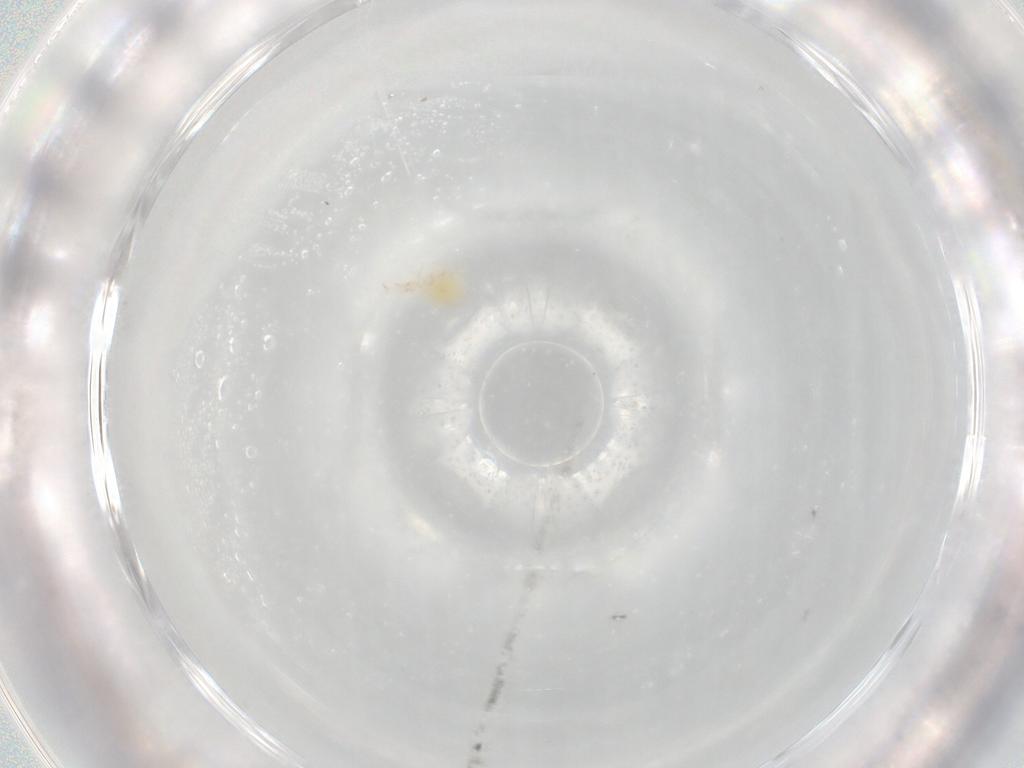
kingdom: Animalia
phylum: Arthropoda
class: Arachnida
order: Trombidiformes
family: Cunaxidae
